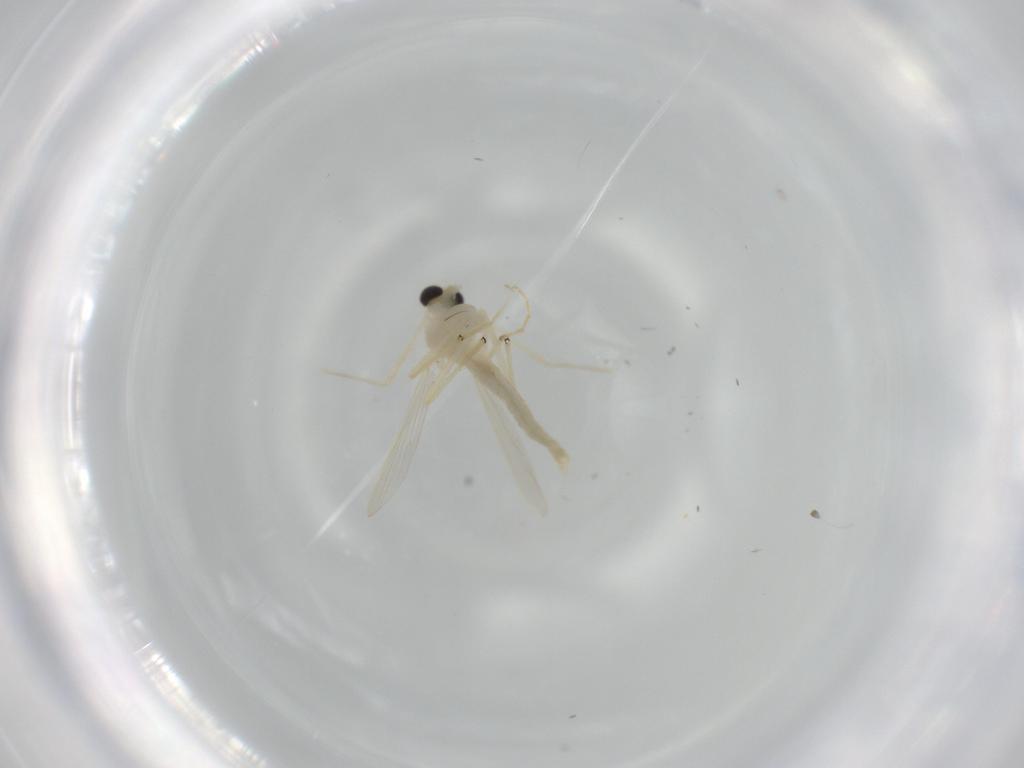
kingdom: Animalia
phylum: Arthropoda
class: Insecta
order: Diptera
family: Chironomidae
